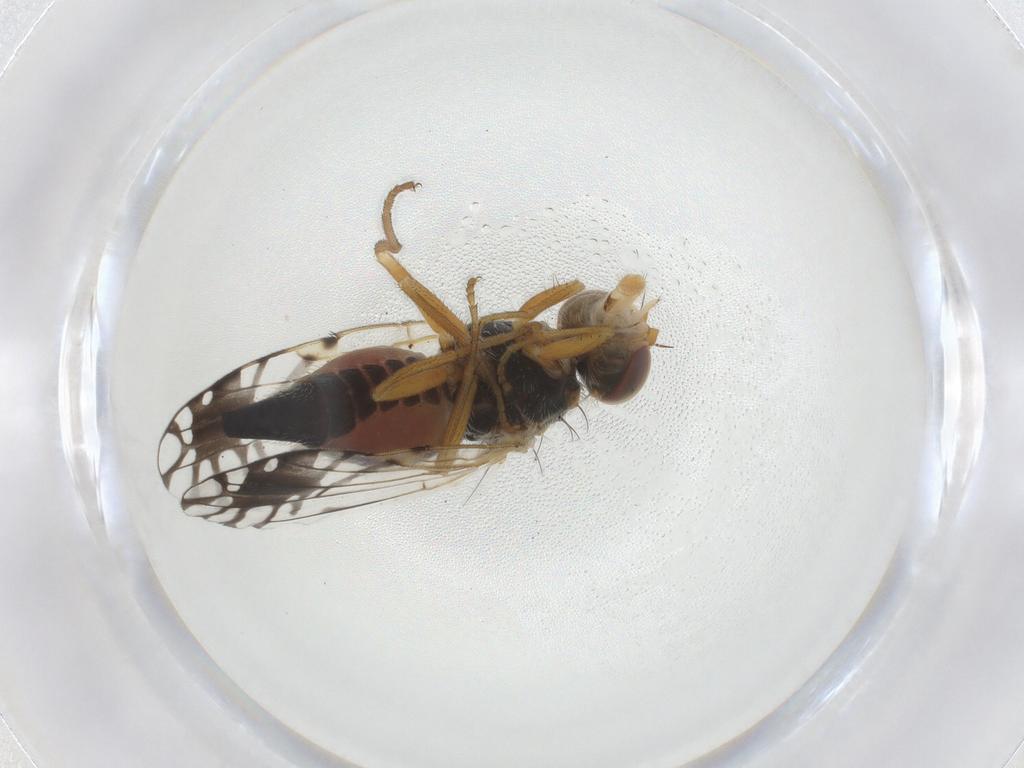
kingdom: Animalia
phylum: Arthropoda
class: Insecta
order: Diptera
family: Tephritidae
